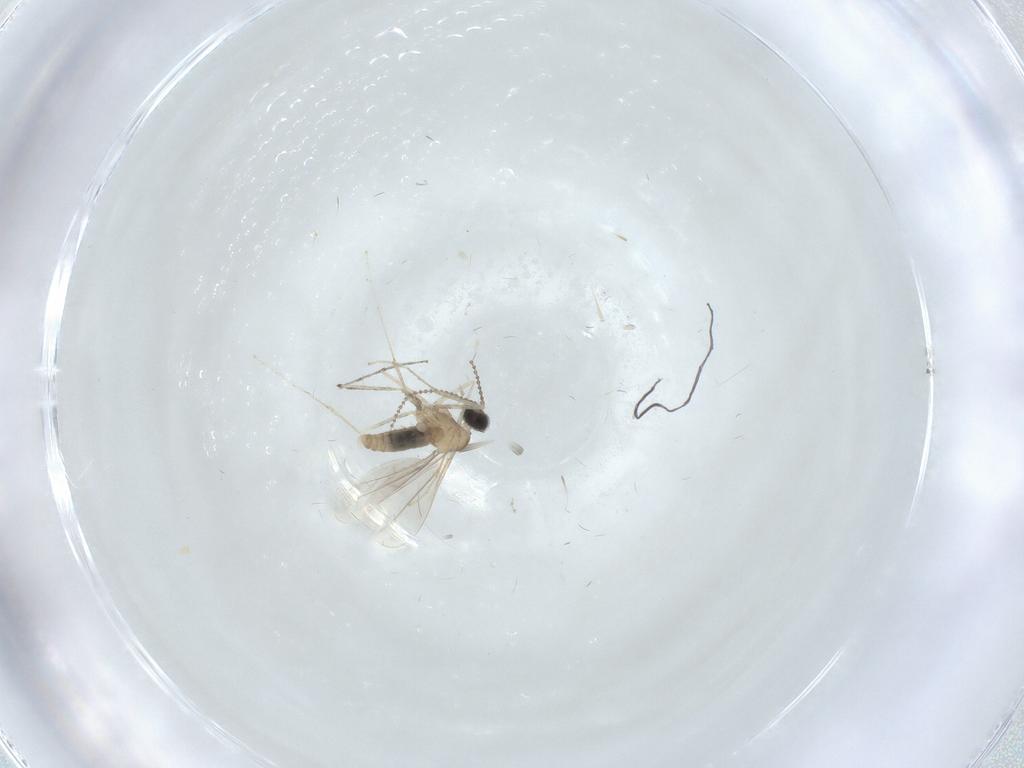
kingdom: Animalia
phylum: Arthropoda
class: Insecta
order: Diptera
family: Cecidomyiidae
